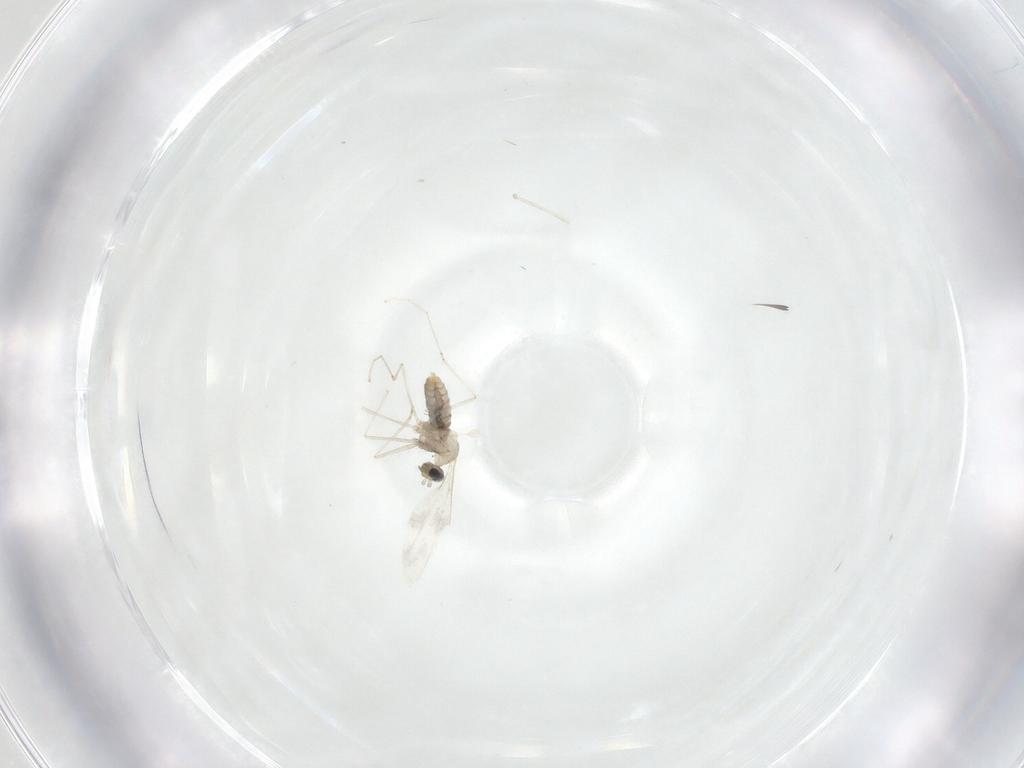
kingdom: Animalia
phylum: Arthropoda
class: Insecta
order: Diptera
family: Cecidomyiidae
